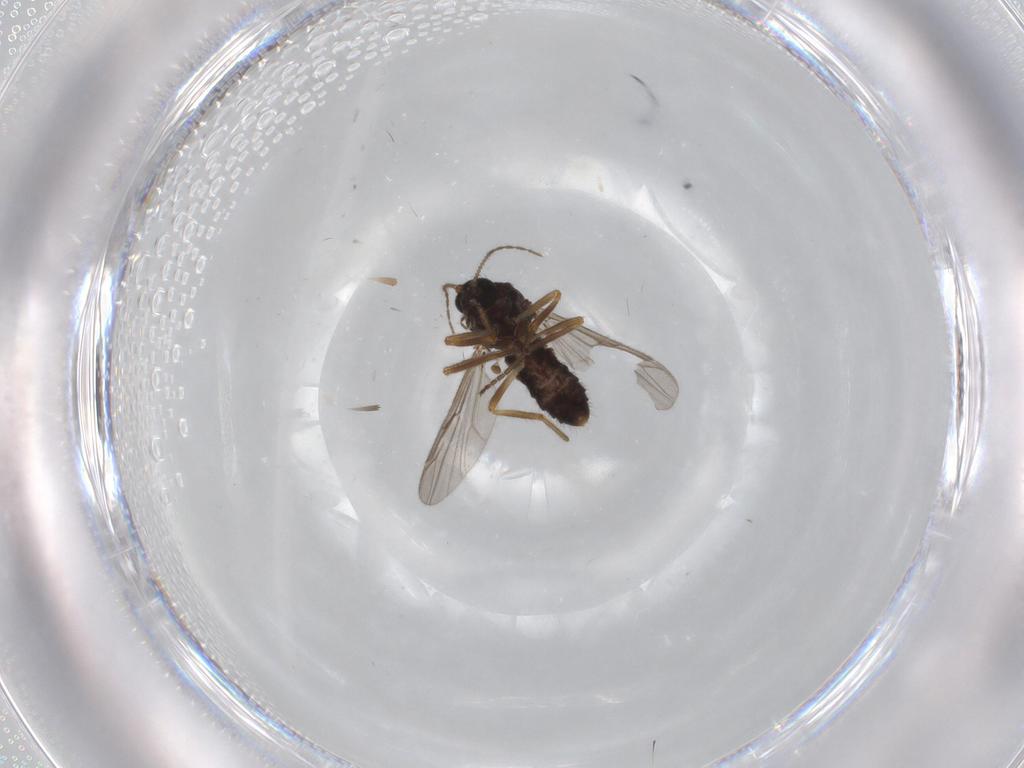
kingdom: Animalia
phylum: Arthropoda
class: Insecta
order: Diptera
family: Ceratopogonidae
